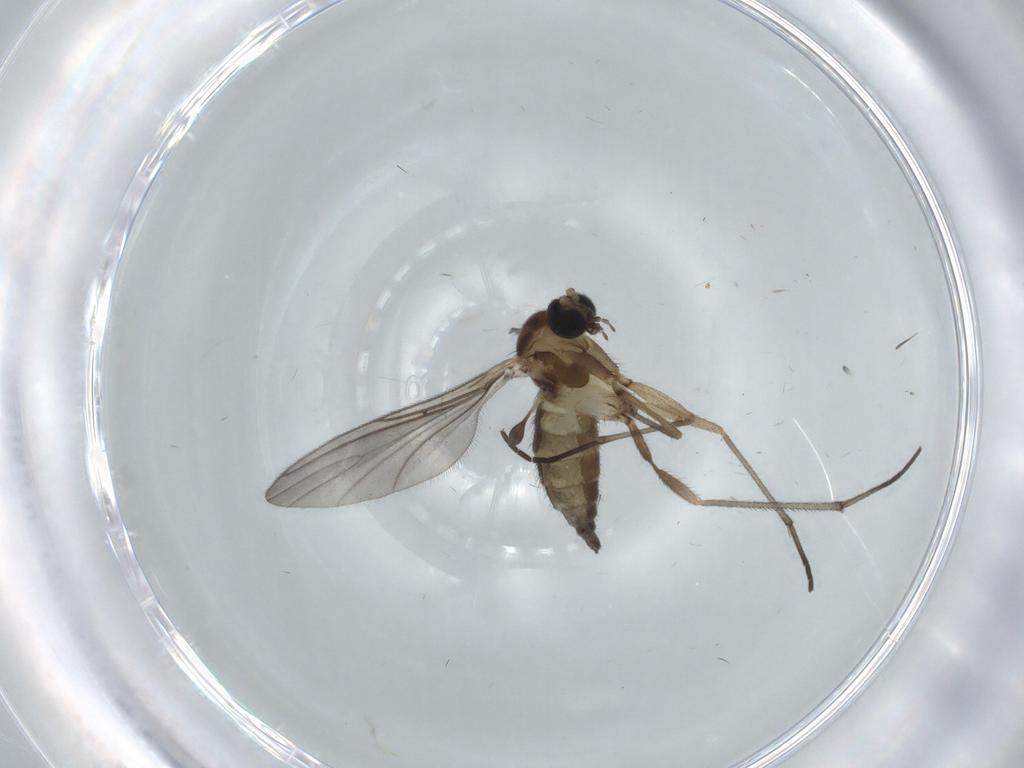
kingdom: Animalia
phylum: Arthropoda
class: Insecta
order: Diptera
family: Sciaridae
